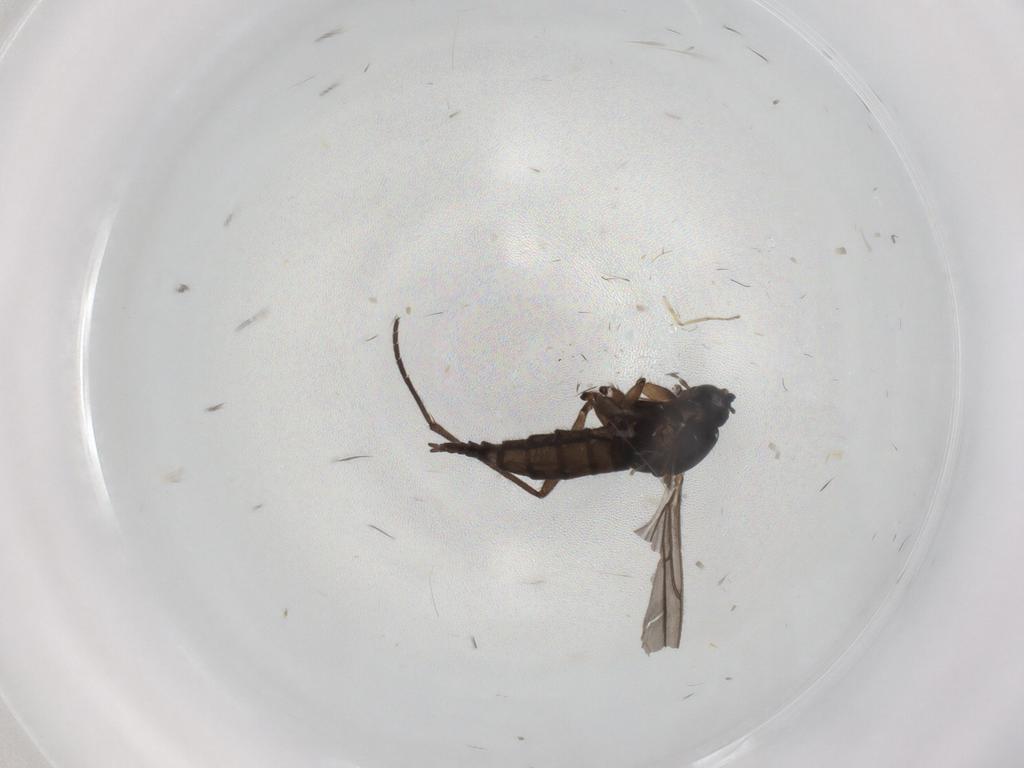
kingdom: Animalia
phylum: Arthropoda
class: Insecta
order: Diptera
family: Sciaridae
